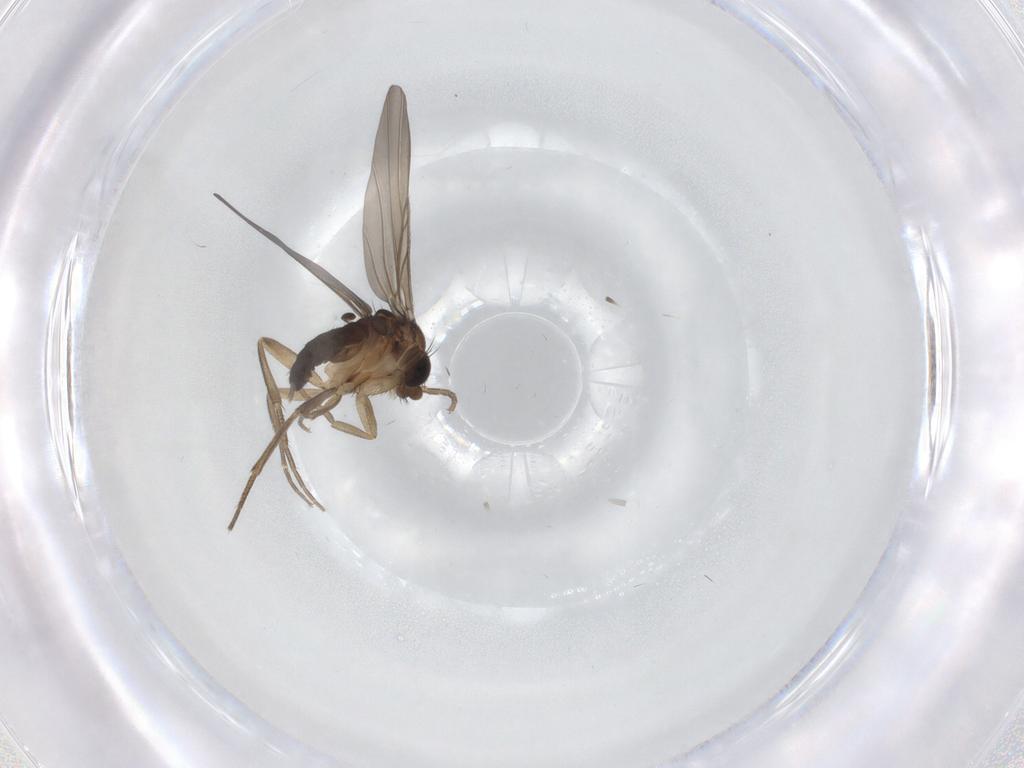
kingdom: Animalia
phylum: Arthropoda
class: Insecta
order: Diptera
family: Phoridae
